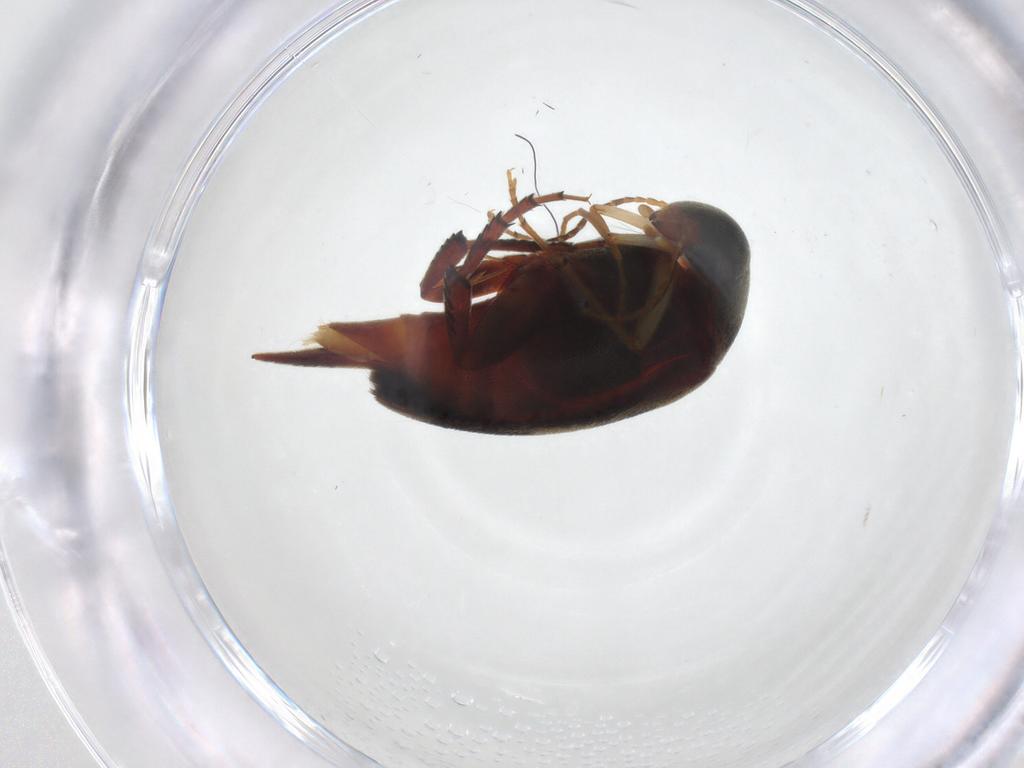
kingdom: Animalia
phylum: Arthropoda
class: Insecta
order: Coleoptera
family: Mordellidae
